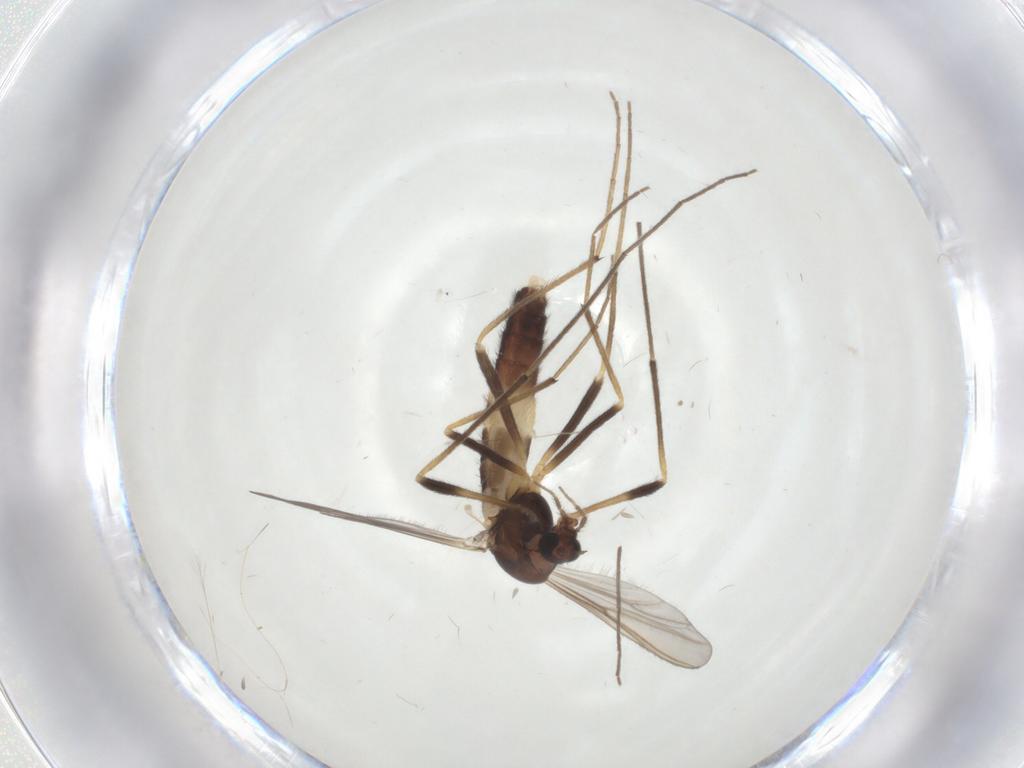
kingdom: Animalia
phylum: Arthropoda
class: Insecta
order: Diptera
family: Chironomidae
